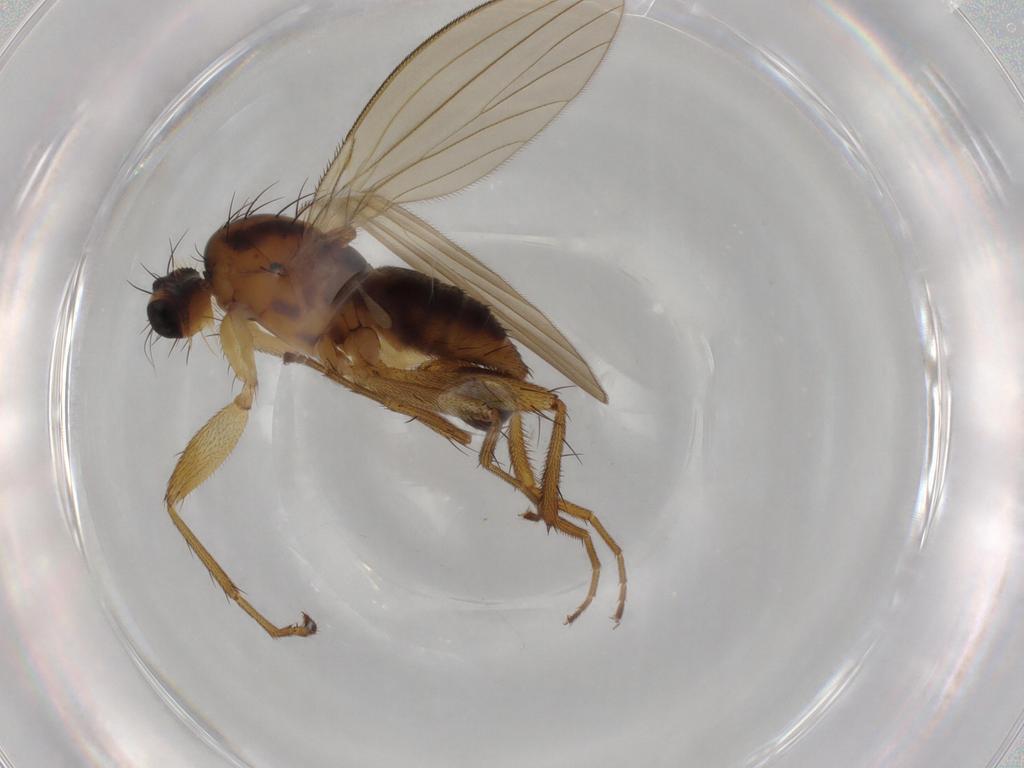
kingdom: Animalia
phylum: Arthropoda
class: Insecta
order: Diptera
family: Lonchopteridae
